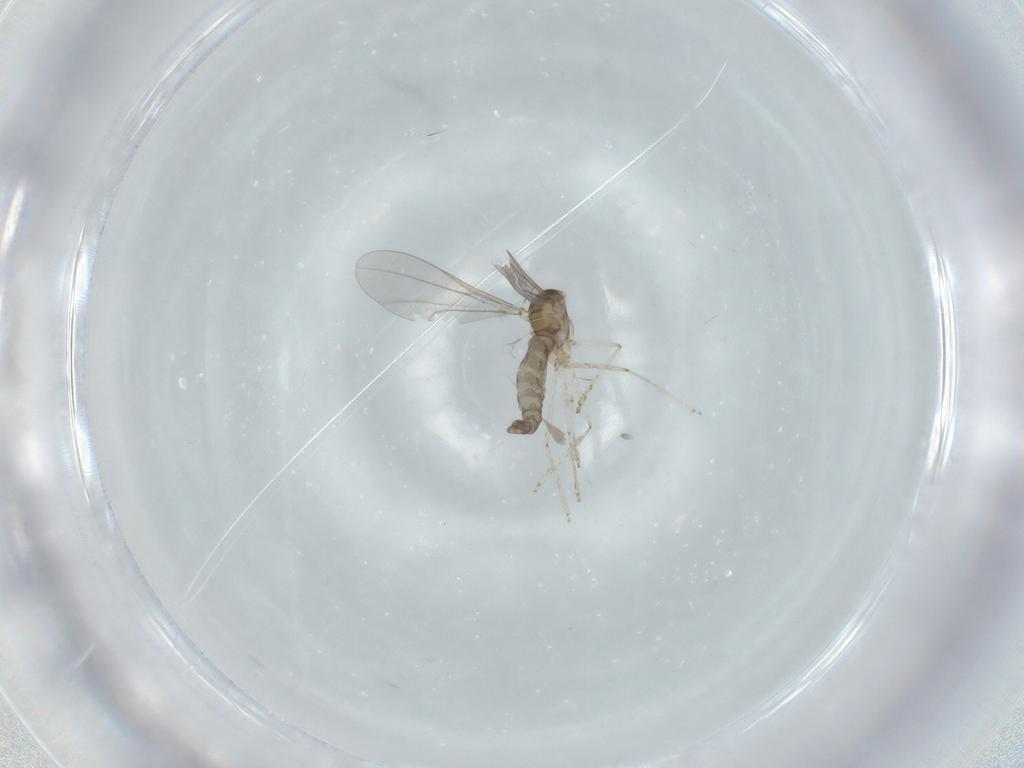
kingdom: Animalia
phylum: Arthropoda
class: Insecta
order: Diptera
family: Cecidomyiidae
